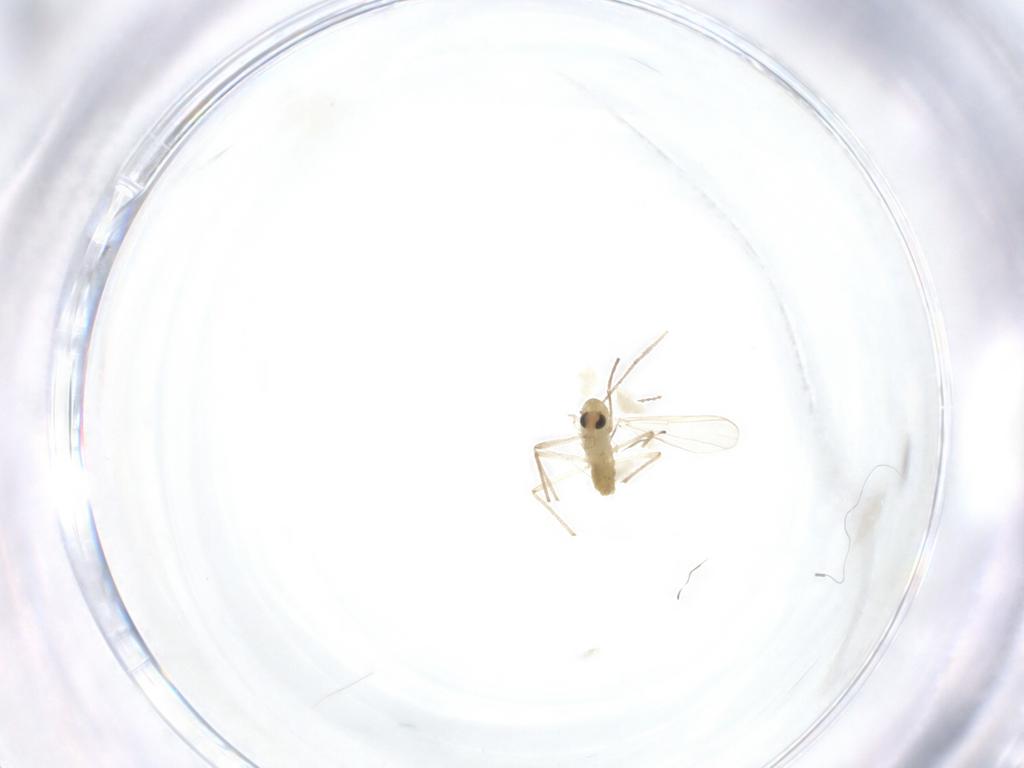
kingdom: Animalia
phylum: Arthropoda
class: Insecta
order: Diptera
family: Chironomidae
